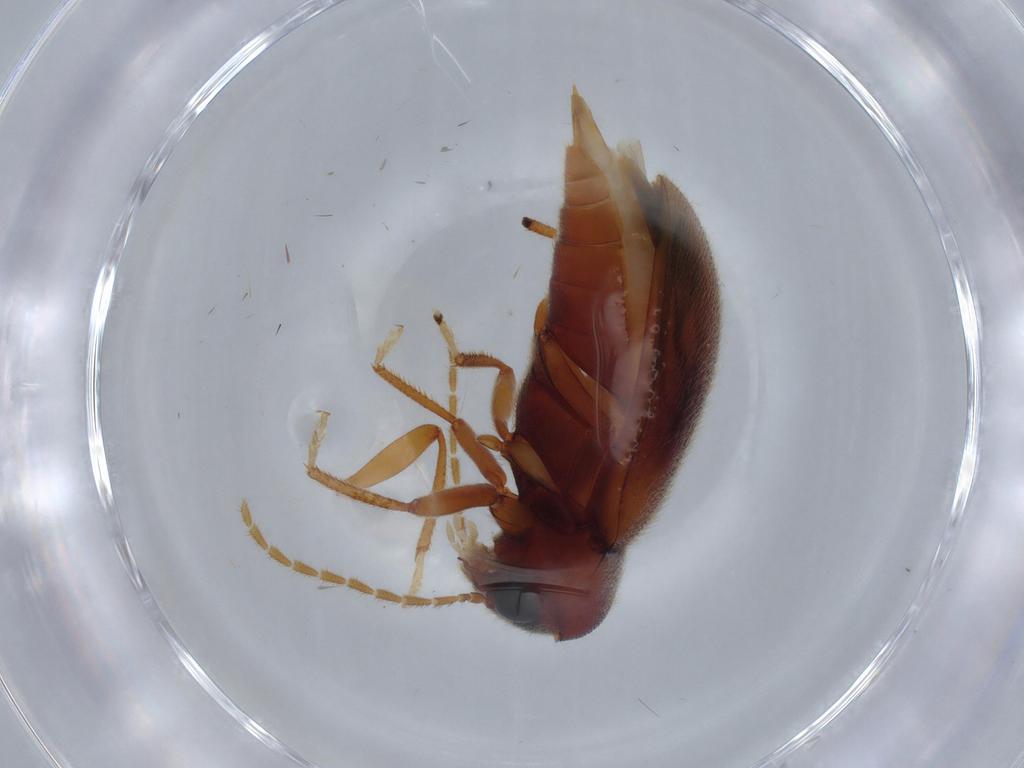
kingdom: Animalia
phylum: Arthropoda
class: Insecta
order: Coleoptera
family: Ptilodactylidae
